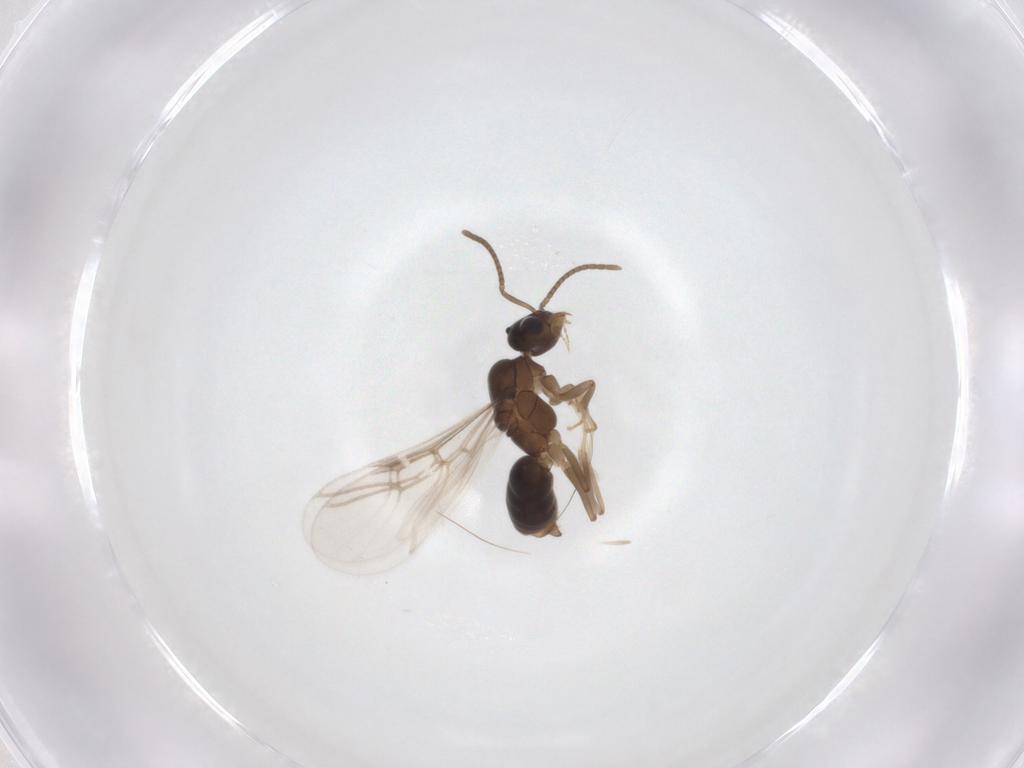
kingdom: Animalia
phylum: Arthropoda
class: Insecta
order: Hymenoptera
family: Formicidae
